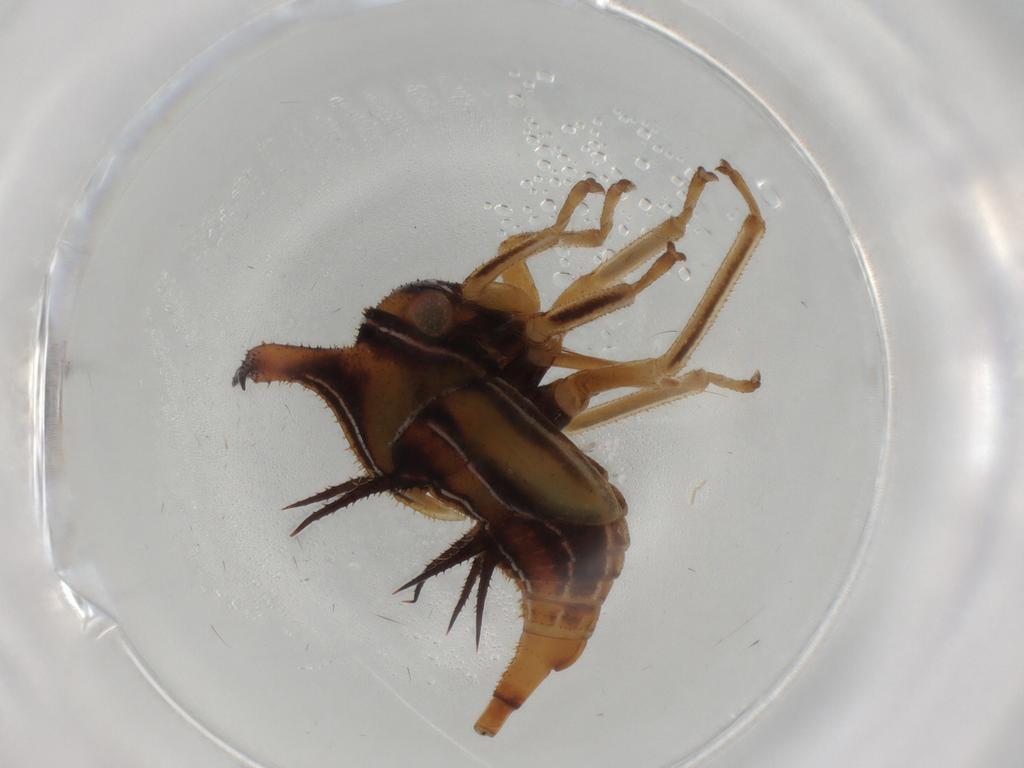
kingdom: Animalia
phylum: Arthropoda
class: Insecta
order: Hemiptera
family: Membracidae
